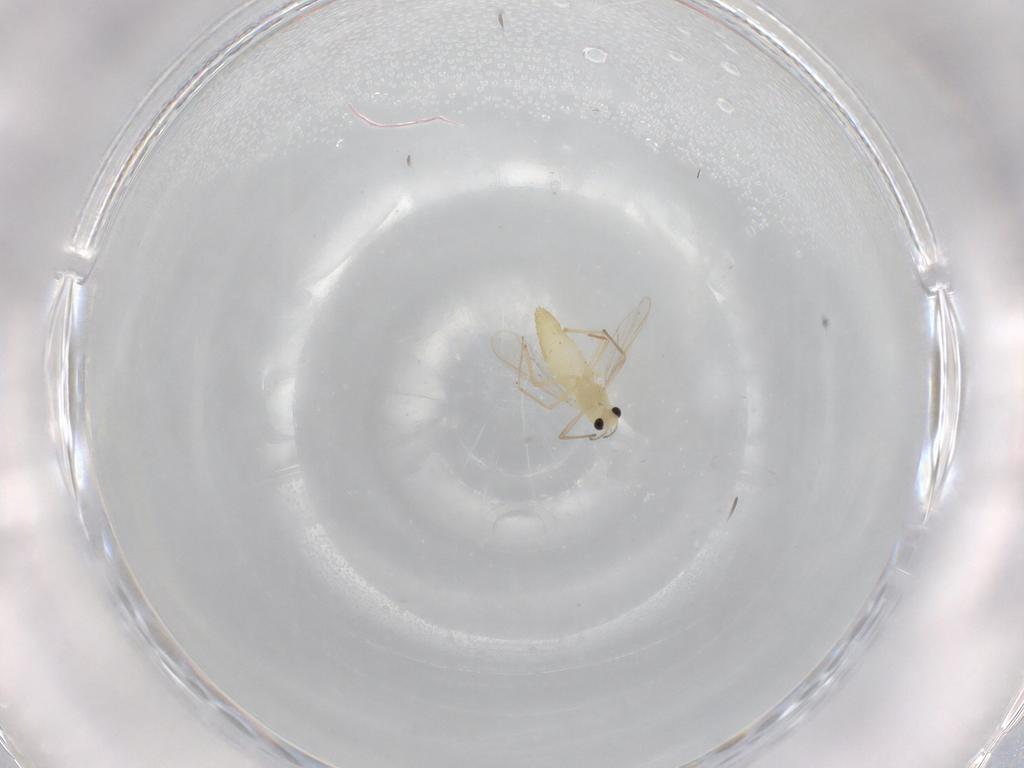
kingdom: Animalia
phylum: Arthropoda
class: Insecta
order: Diptera
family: Chironomidae
